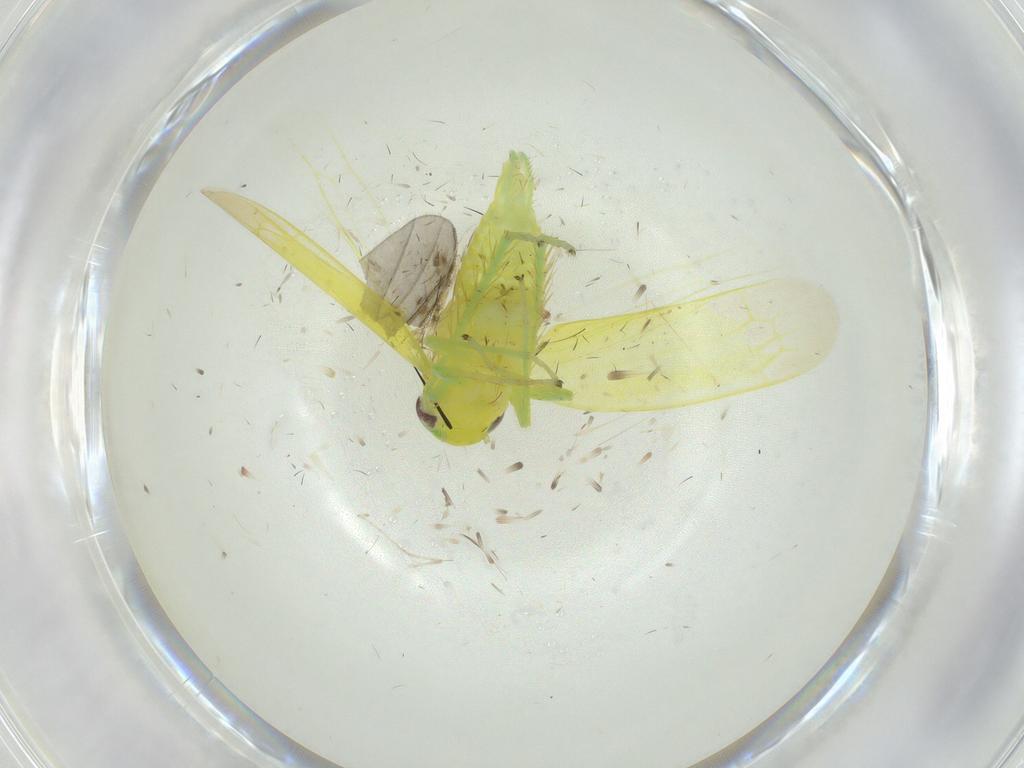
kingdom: Animalia
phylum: Arthropoda
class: Insecta
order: Hemiptera
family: Cicadellidae
